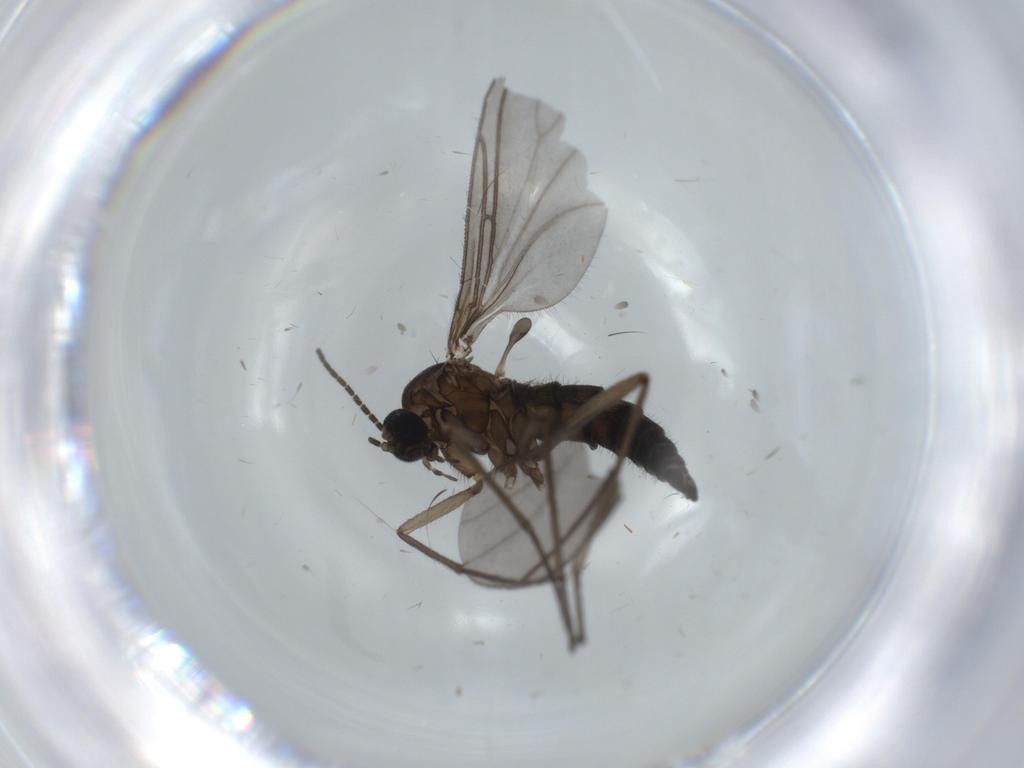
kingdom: Animalia
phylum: Arthropoda
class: Insecta
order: Diptera
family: Sciaridae
